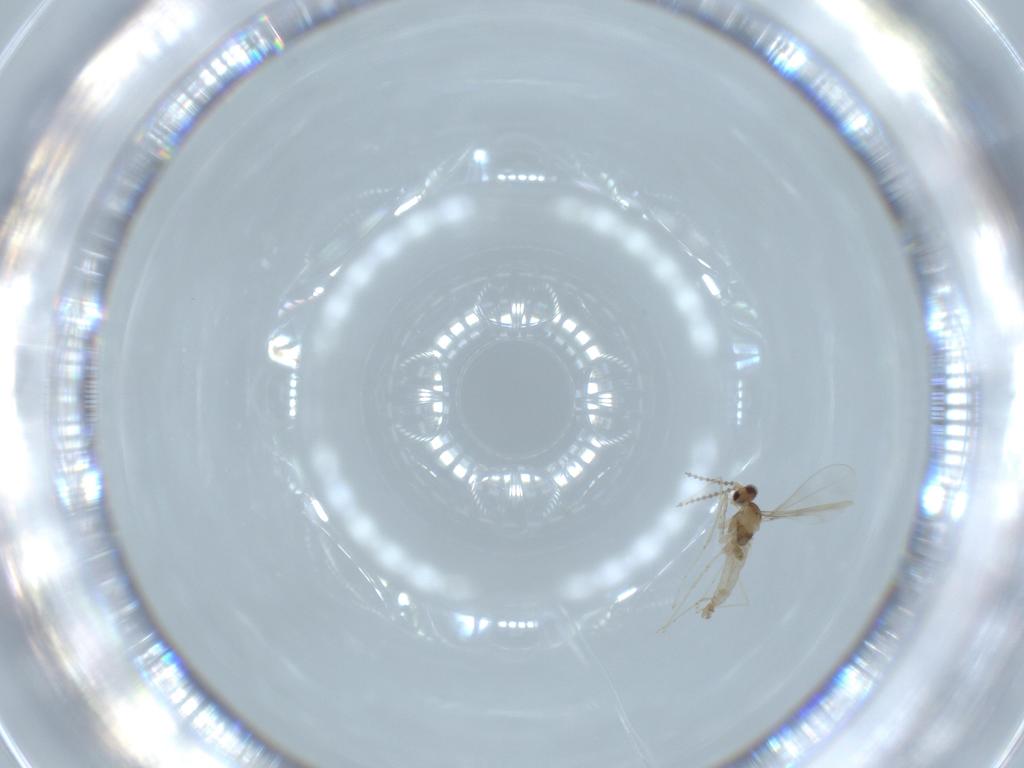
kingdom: Animalia
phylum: Arthropoda
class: Insecta
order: Diptera
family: Cecidomyiidae
